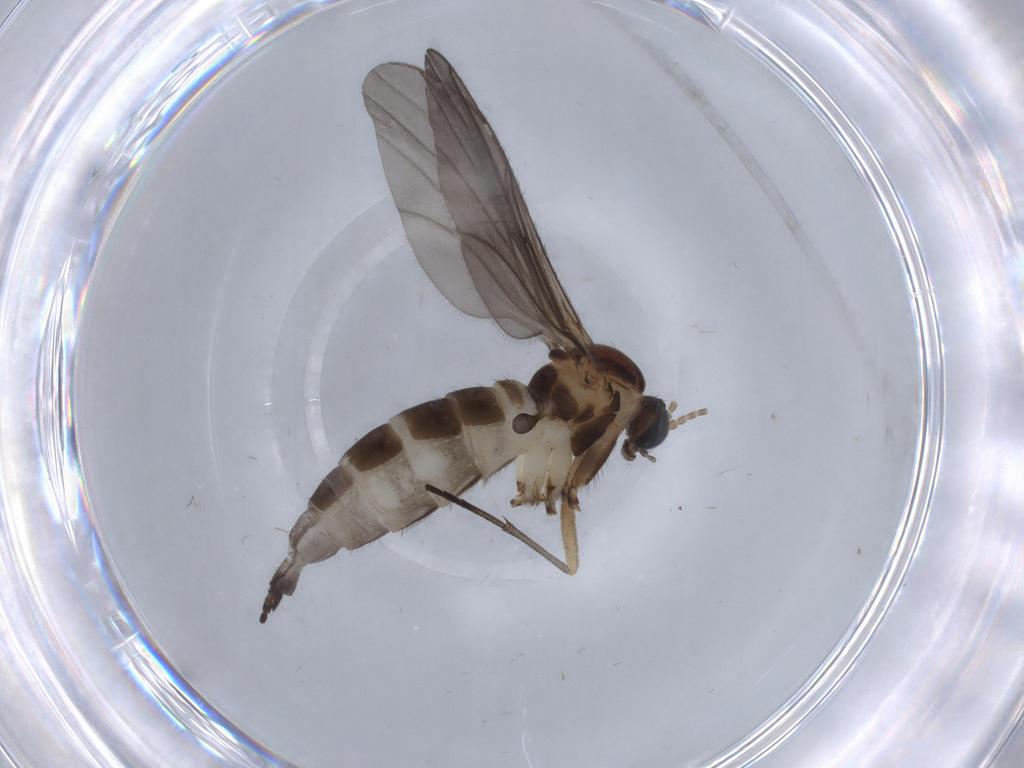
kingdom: Animalia
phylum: Arthropoda
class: Insecta
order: Diptera
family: Sciaridae
